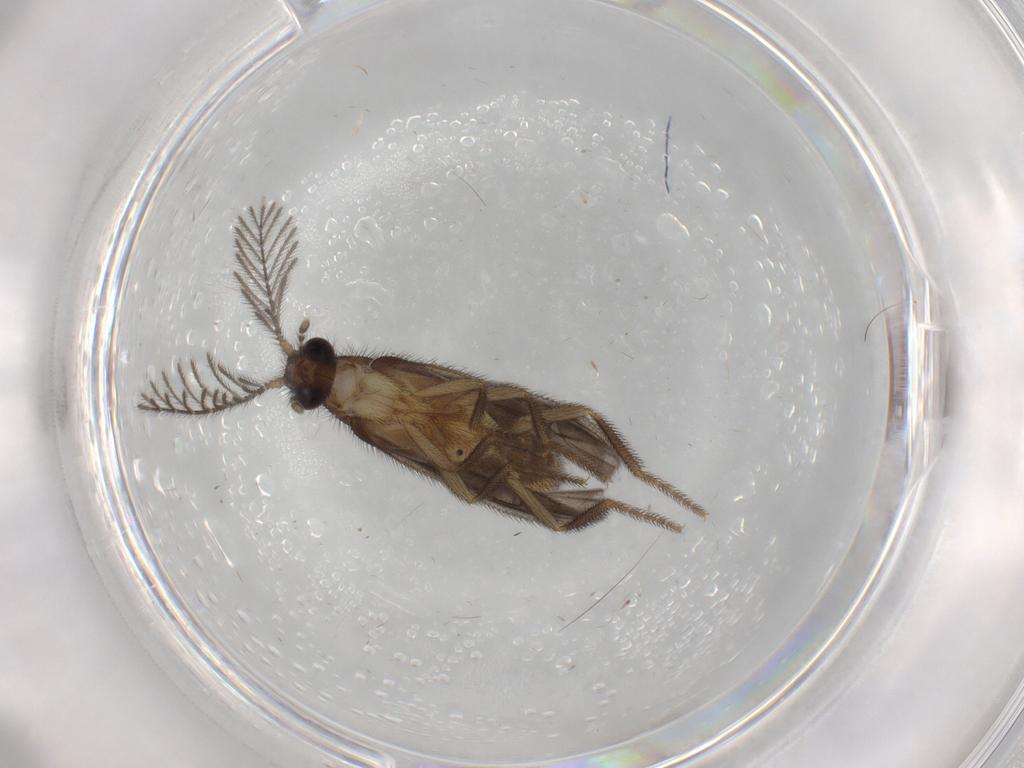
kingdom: Animalia
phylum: Arthropoda
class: Insecta
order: Coleoptera
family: Phengodidae
